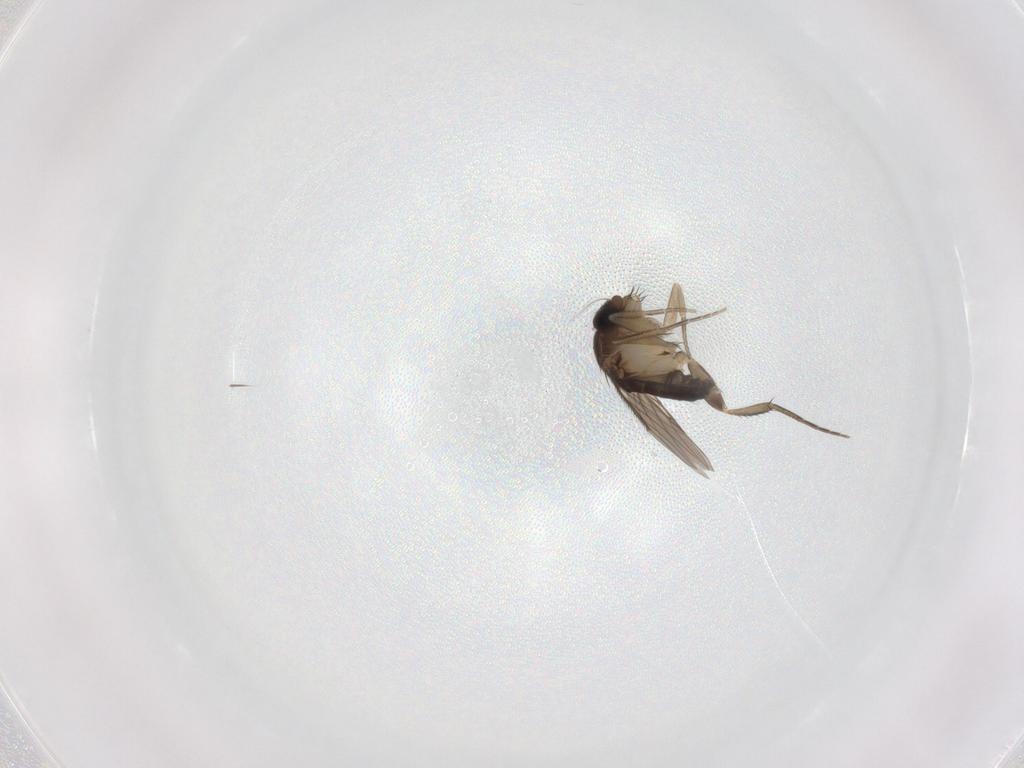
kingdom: Animalia
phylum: Arthropoda
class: Insecta
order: Diptera
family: Phoridae
